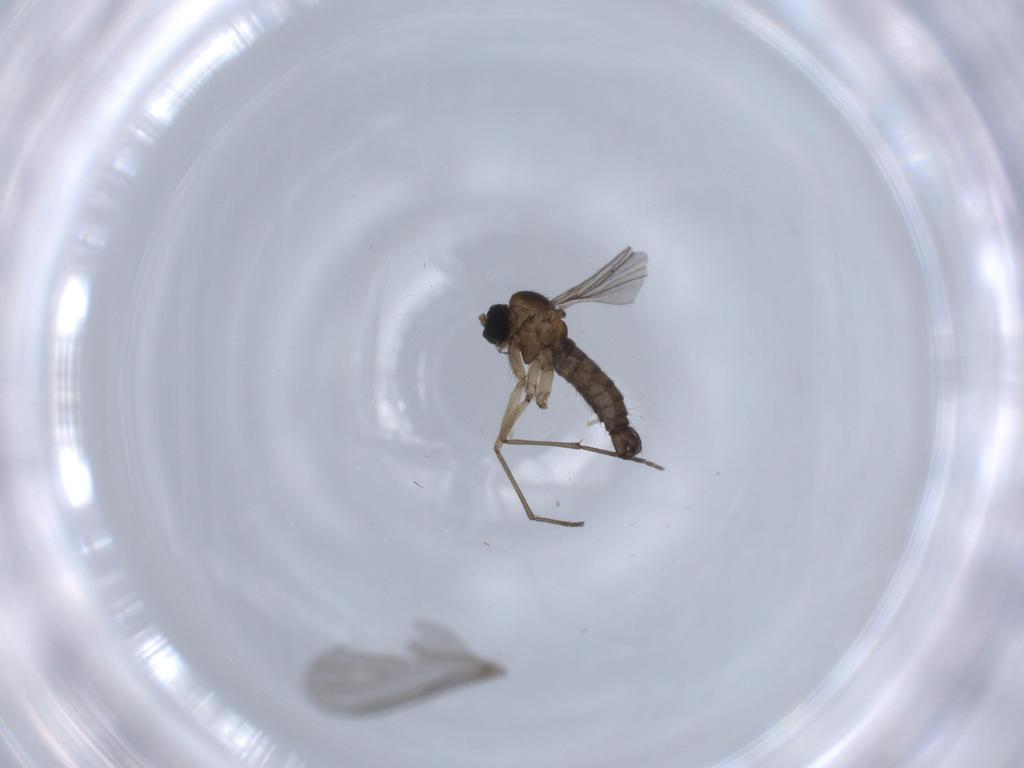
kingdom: Animalia
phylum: Arthropoda
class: Insecta
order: Diptera
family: Sciaridae
